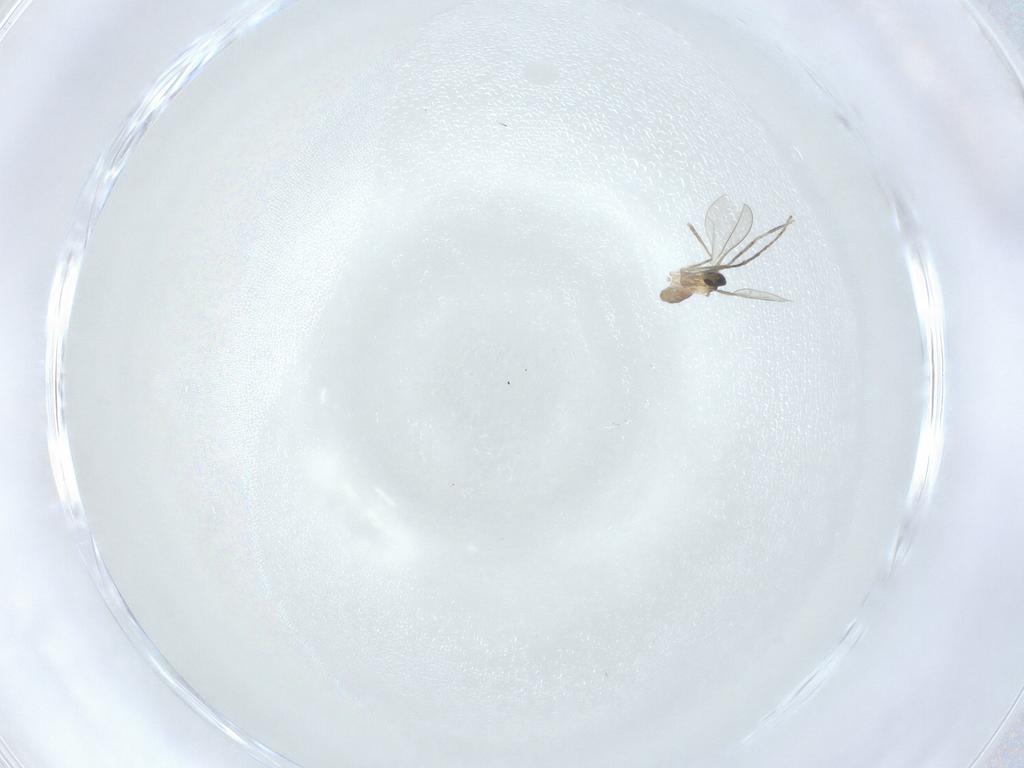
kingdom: Animalia
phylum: Arthropoda
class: Insecta
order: Diptera
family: Cecidomyiidae
